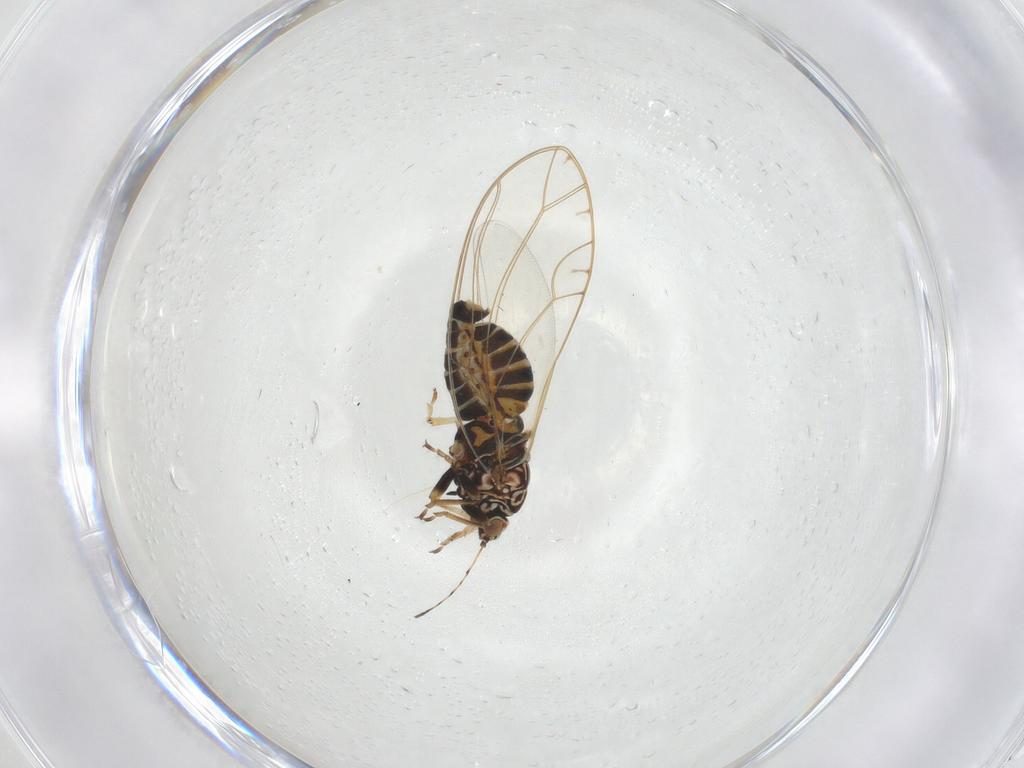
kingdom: Animalia
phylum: Arthropoda
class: Insecta
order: Hemiptera
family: Triozidae
